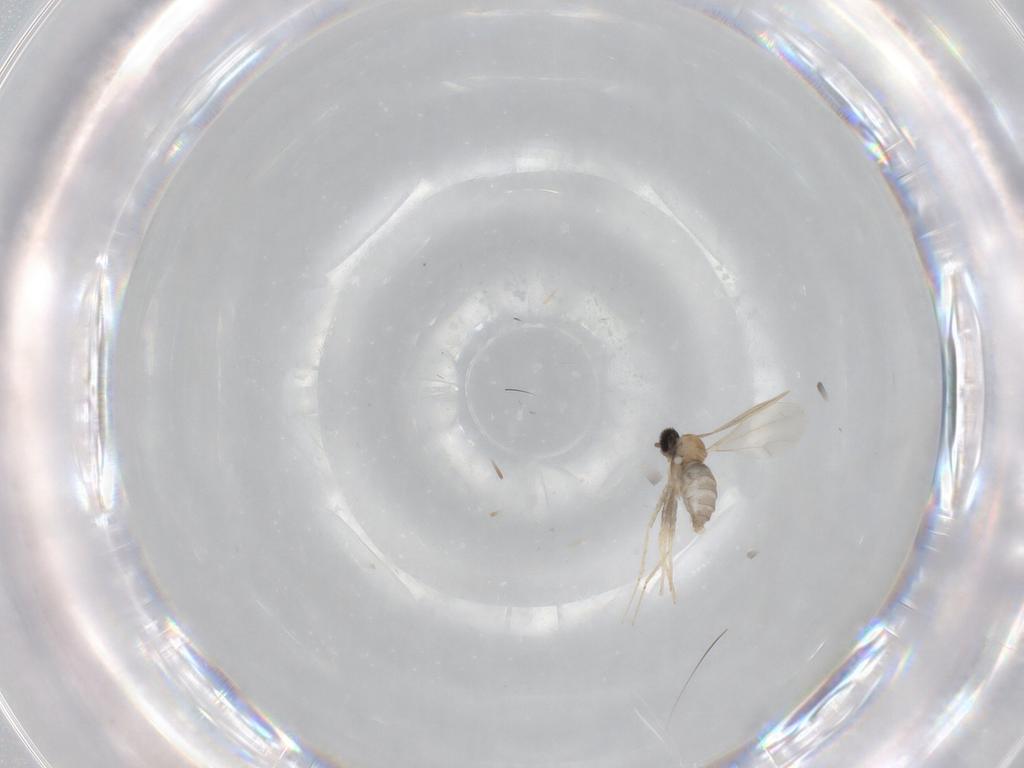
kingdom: Animalia
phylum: Arthropoda
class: Insecta
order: Diptera
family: Cecidomyiidae
